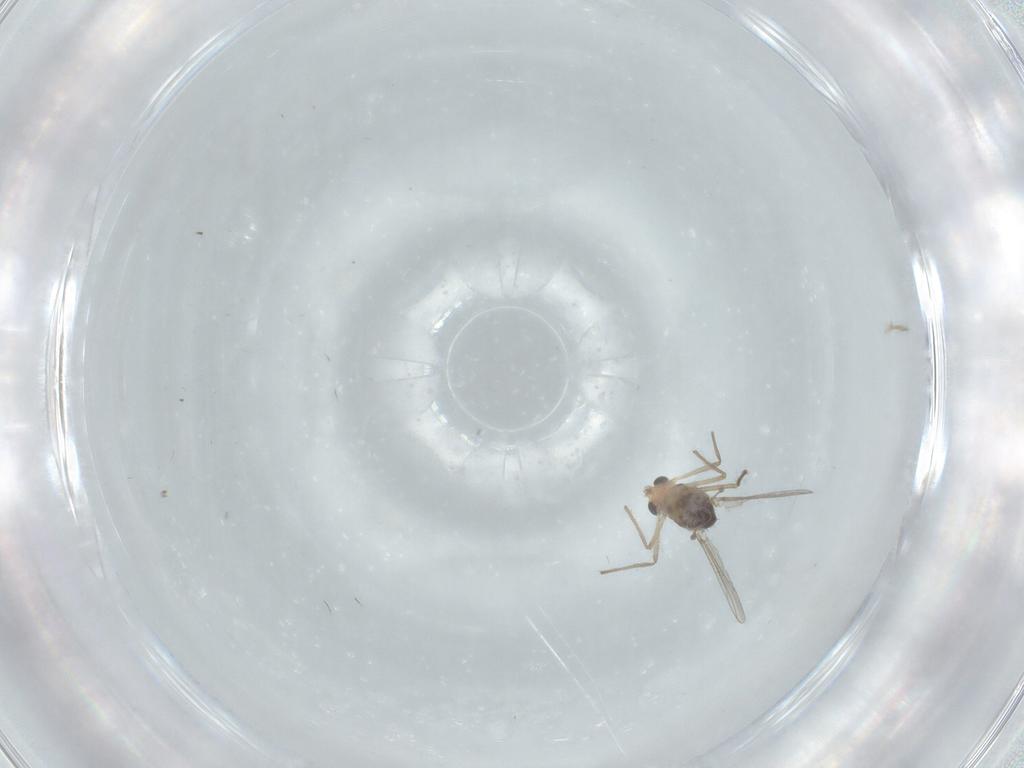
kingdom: Animalia
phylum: Arthropoda
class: Insecta
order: Diptera
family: Chironomidae
